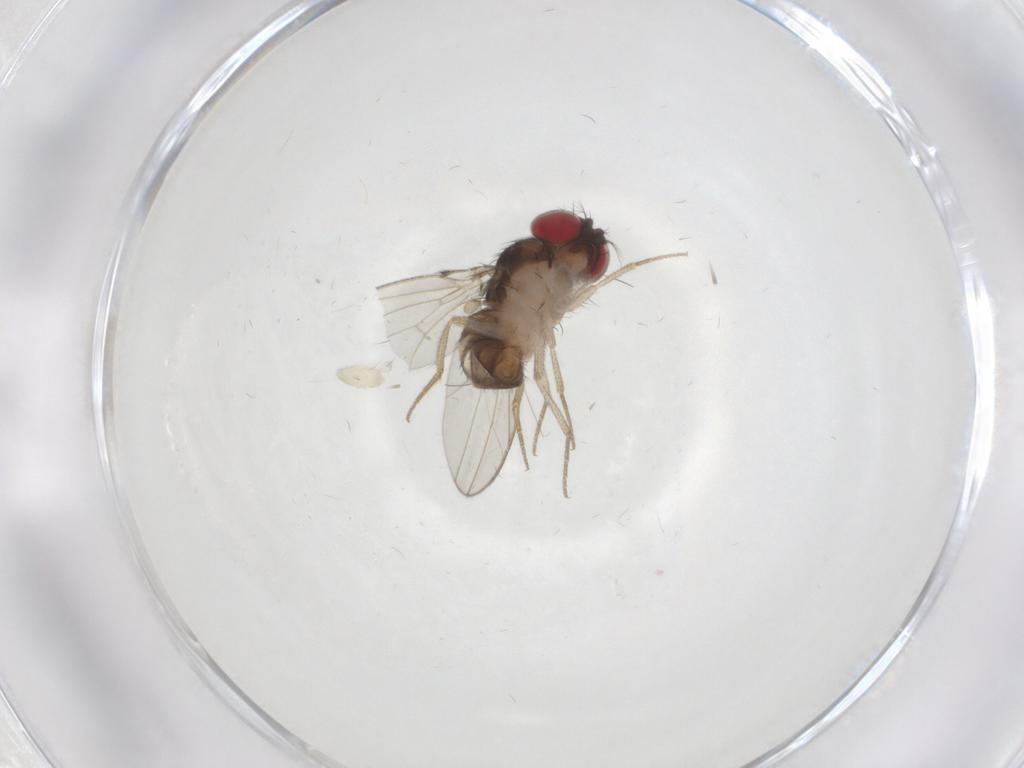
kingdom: Animalia
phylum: Arthropoda
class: Insecta
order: Diptera
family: Drosophilidae
